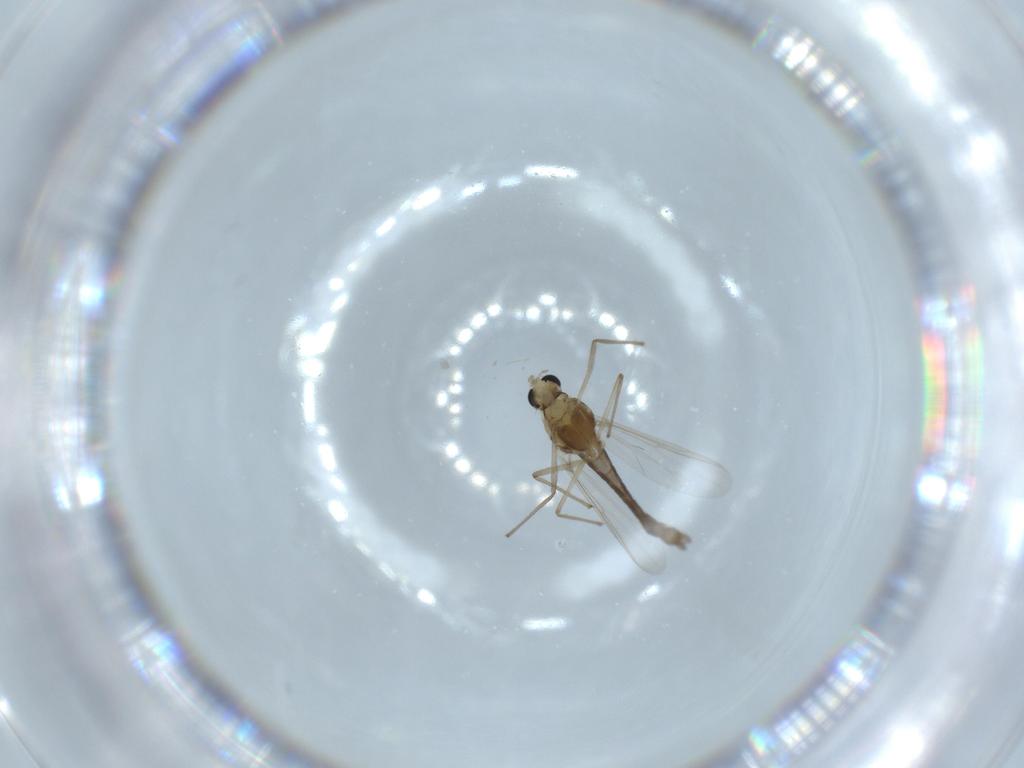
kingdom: Animalia
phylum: Arthropoda
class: Insecta
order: Diptera
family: Chironomidae
